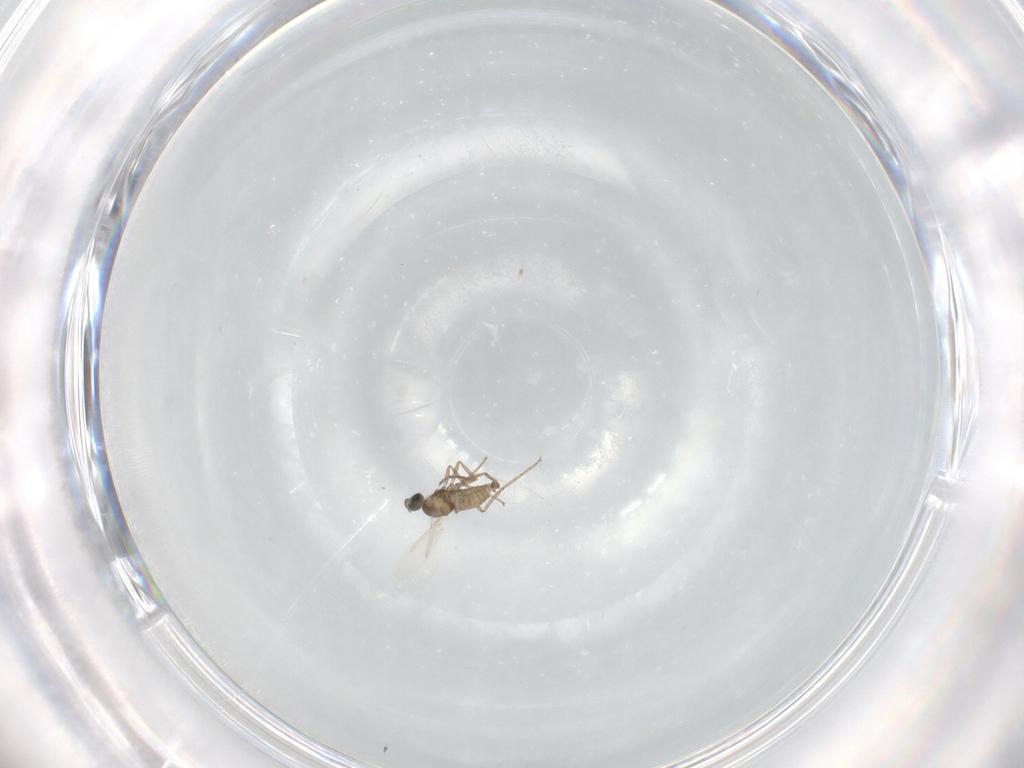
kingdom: Animalia
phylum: Arthropoda
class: Insecta
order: Diptera
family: Cecidomyiidae
